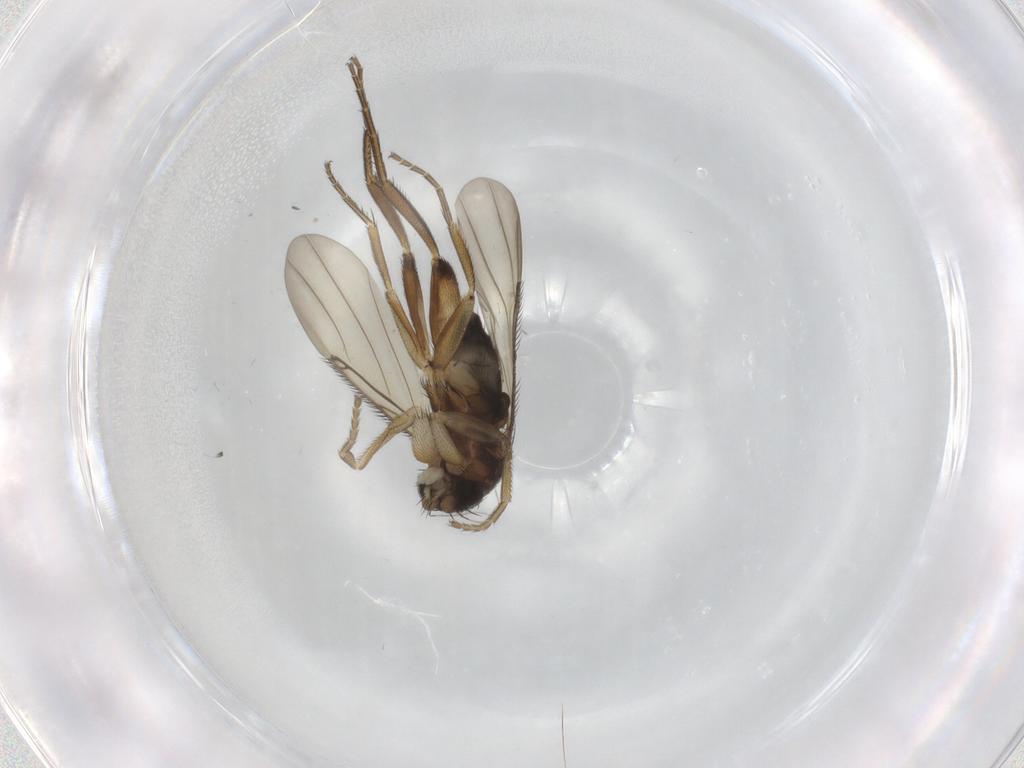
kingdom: Animalia
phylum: Arthropoda
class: Insecta
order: Diptera
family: Phoridae
